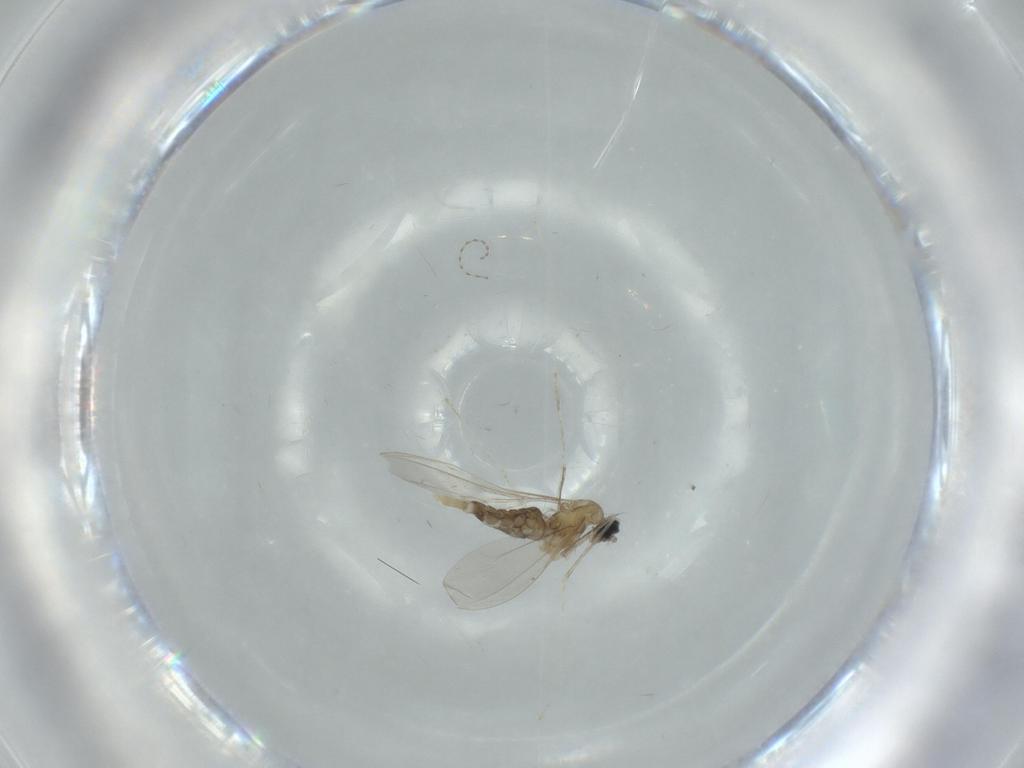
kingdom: Animalia
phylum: Arthropoda
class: Insecta
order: Diptera
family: Cecidomyiidae
